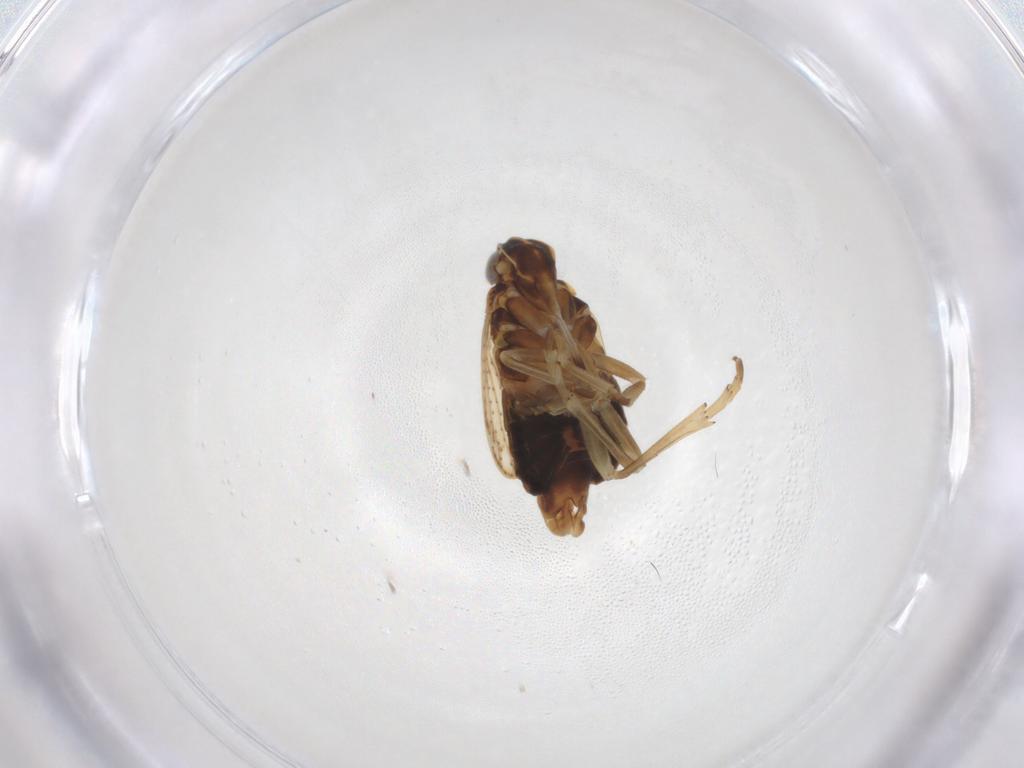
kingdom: Animalia
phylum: Arthropoda
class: Insecta
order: Hemiptera
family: Cixiidae
